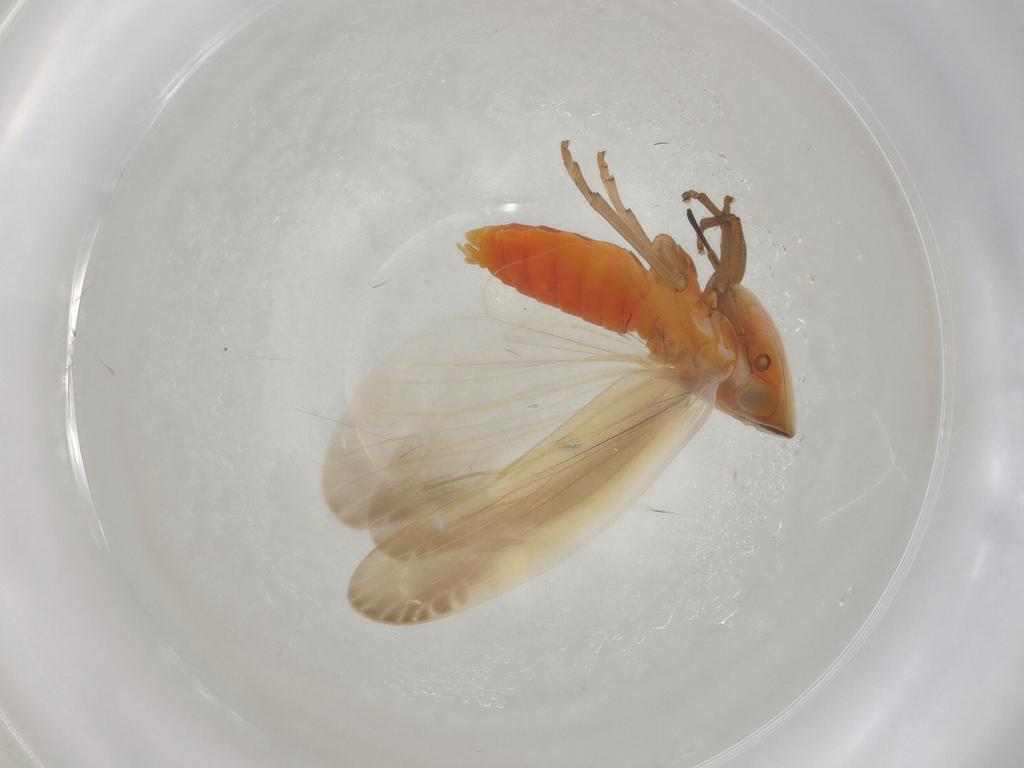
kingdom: Animalia
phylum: Arthropoda
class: Insecta
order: Hemiptera
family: Achilidae
